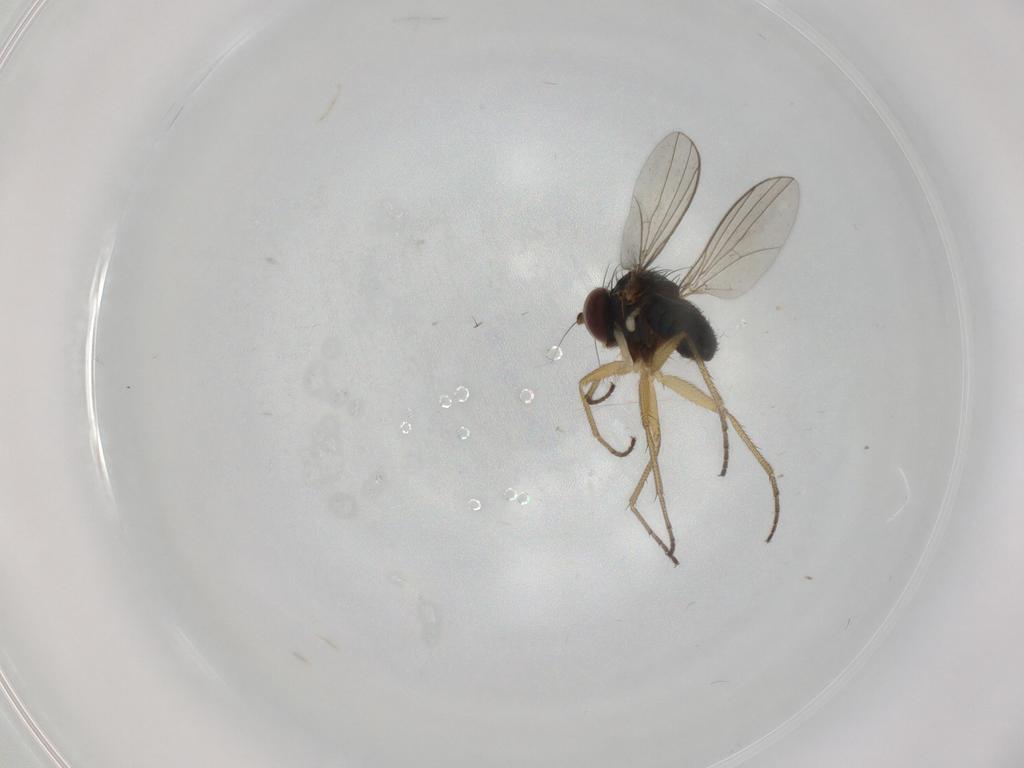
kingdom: Animalia
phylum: Arthropoda
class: Insecta
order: Diptera
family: Dolichopodidae
